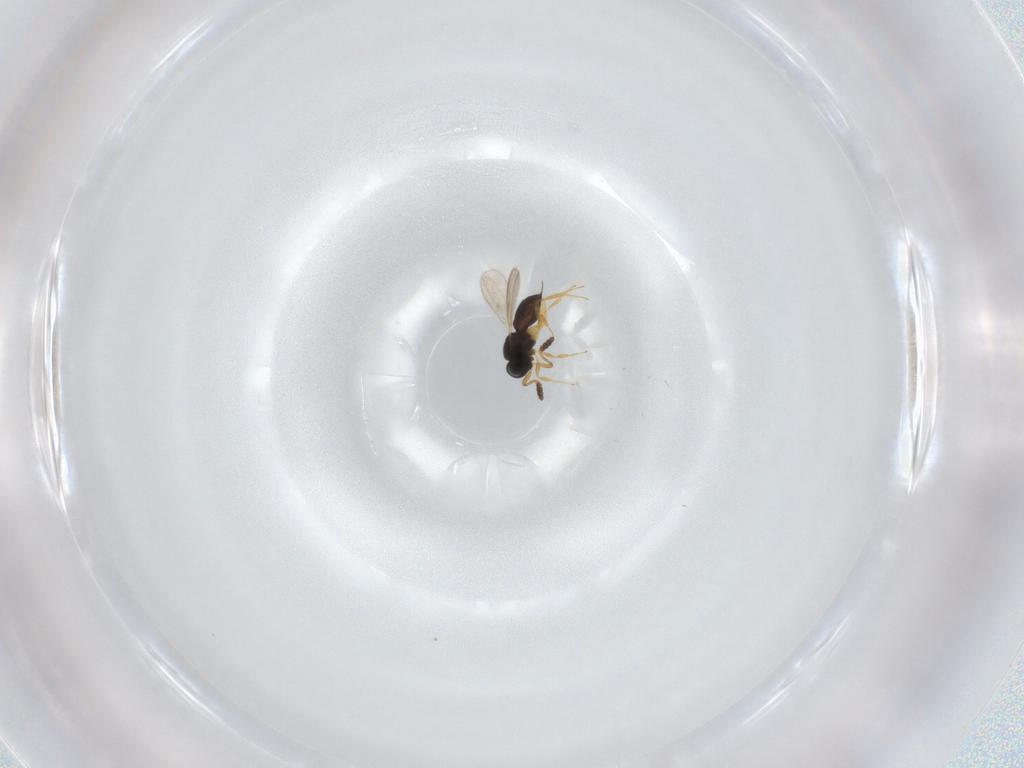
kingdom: Animalia
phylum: Arthropoda
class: Insecta
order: Hymenoptera
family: Scelionidae
